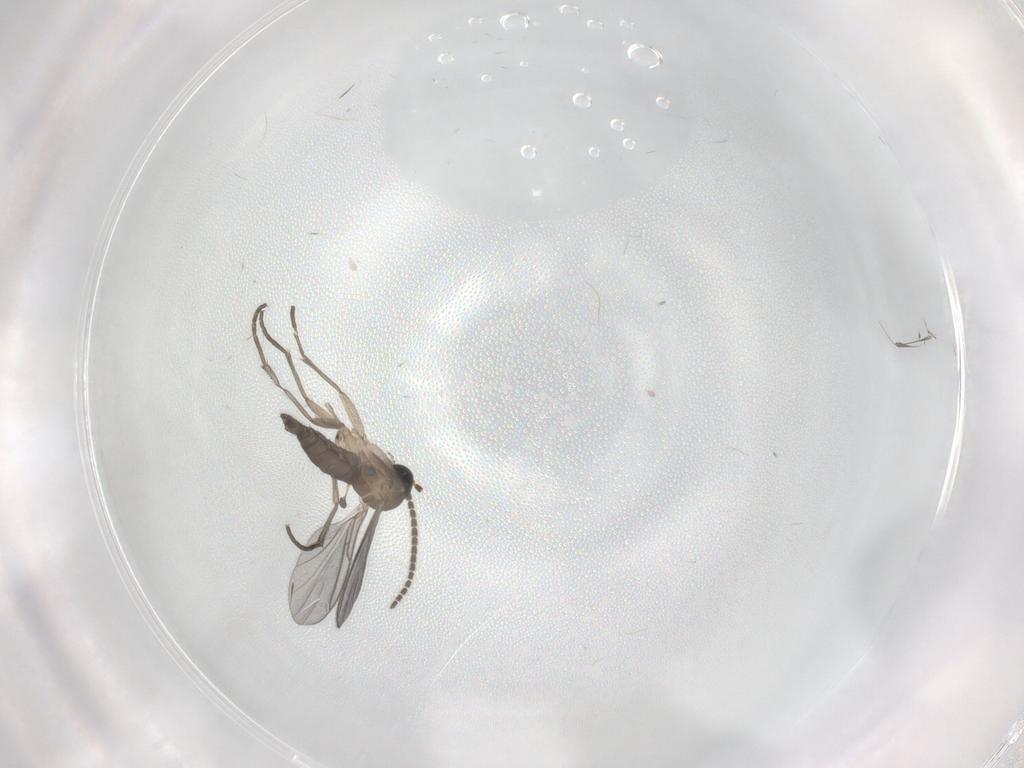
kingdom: Animalia
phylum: Arthropoda
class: Insecta
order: Diptera
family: Sciaridae
